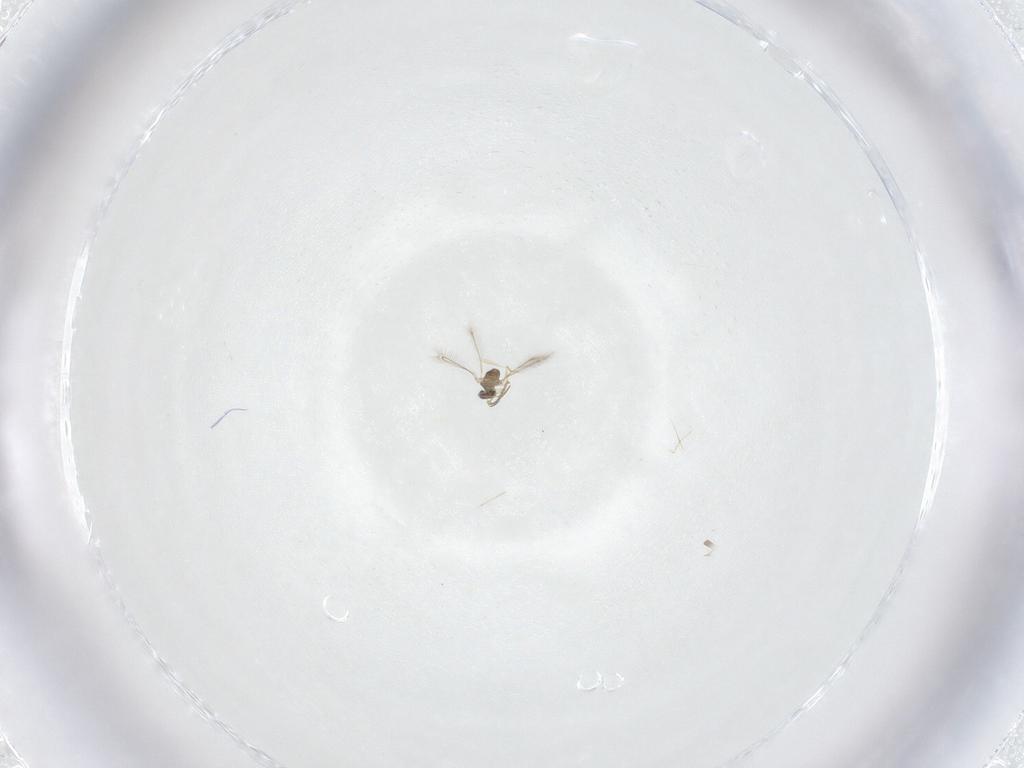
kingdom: Animalia
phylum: Arthropoda
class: Insecta
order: Hymenoptera
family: Mymaridae
